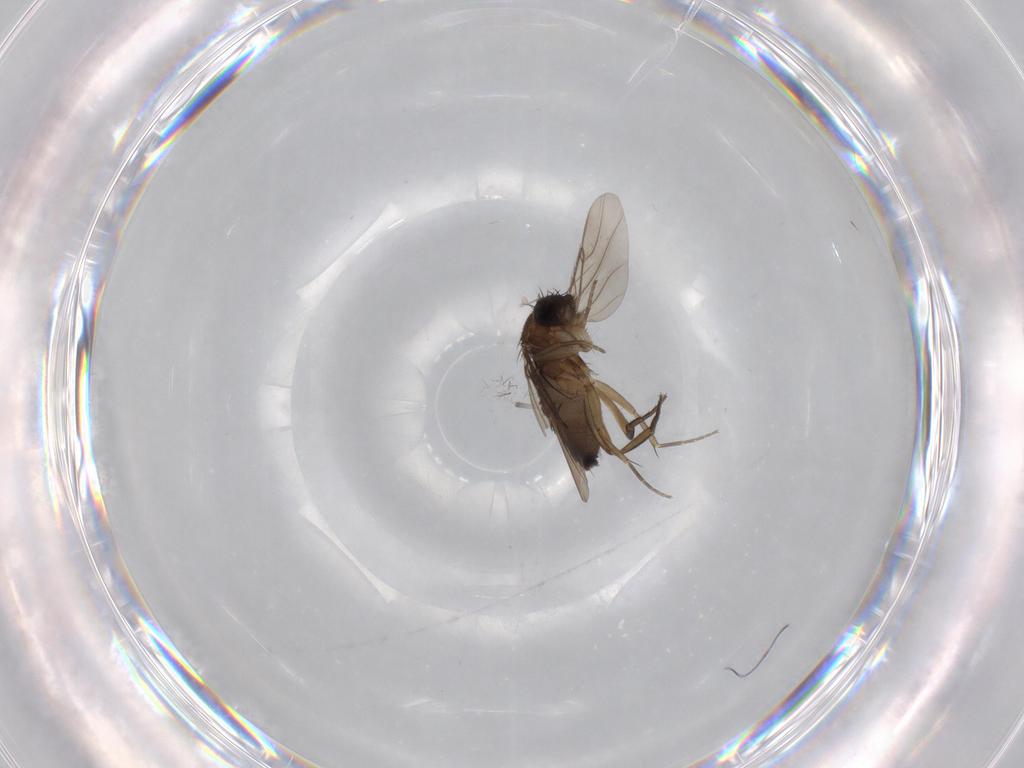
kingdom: Animalia
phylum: Arthropoda
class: Insecta
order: Diptera
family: Phoridae
